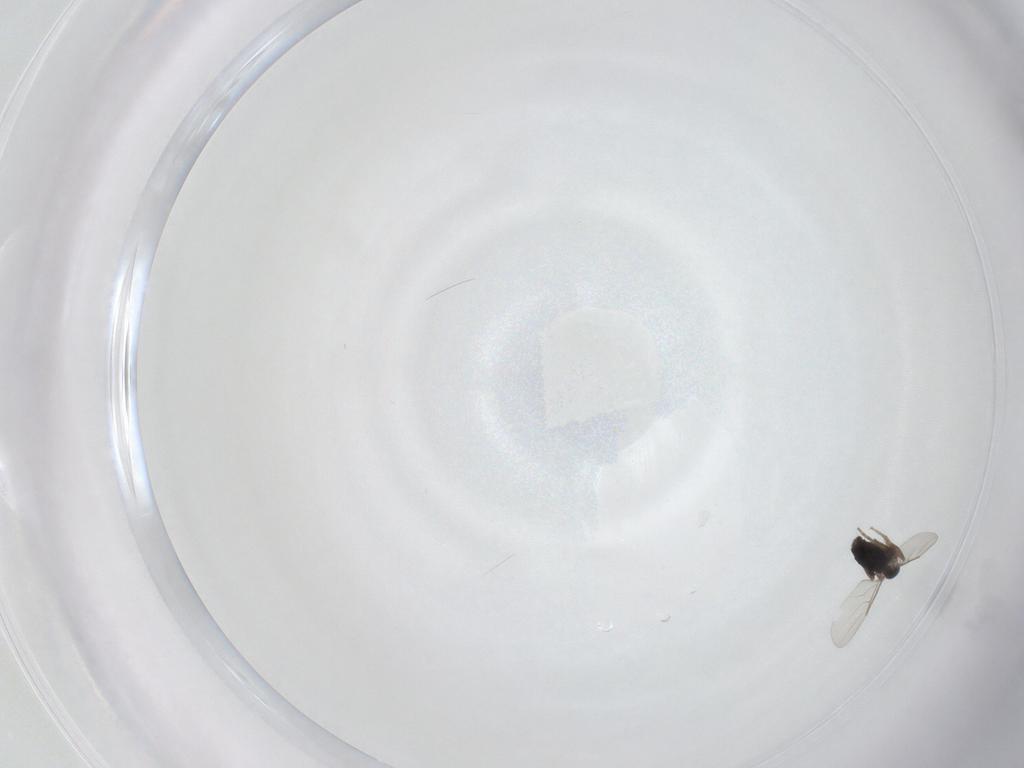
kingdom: Animalia
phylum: Arthropoda
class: Insecta
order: Diptera
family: Phoridae
